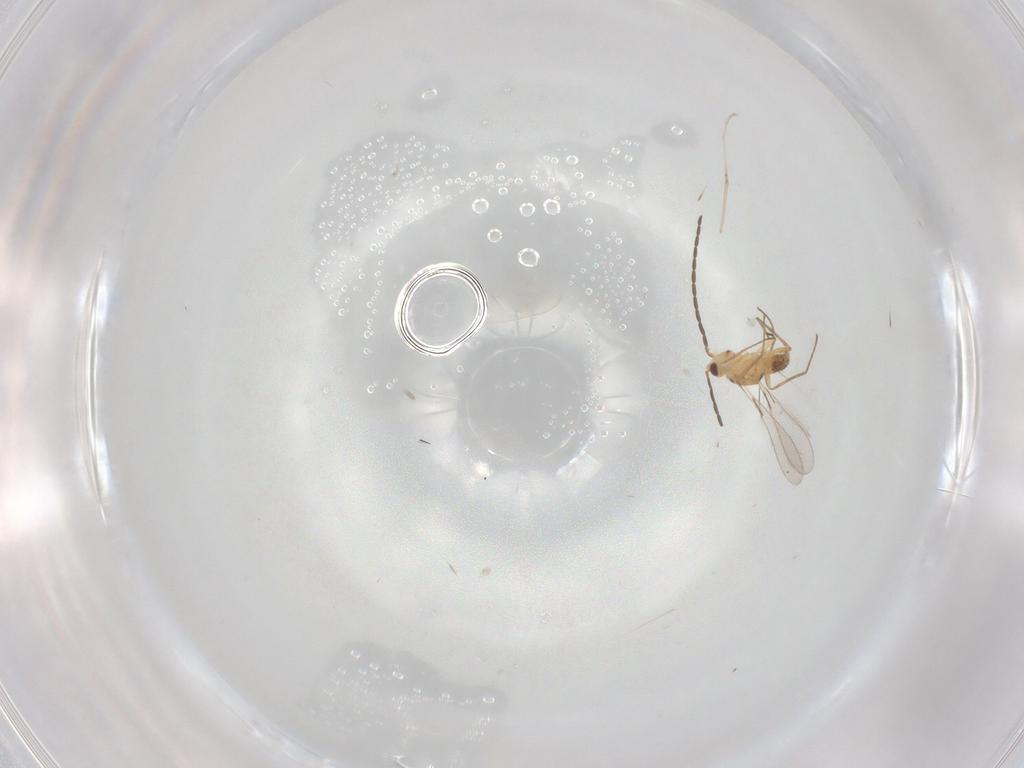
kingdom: Animalia
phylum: Arthropoda
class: Insecta
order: Hymenoptera
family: Mymaridae
